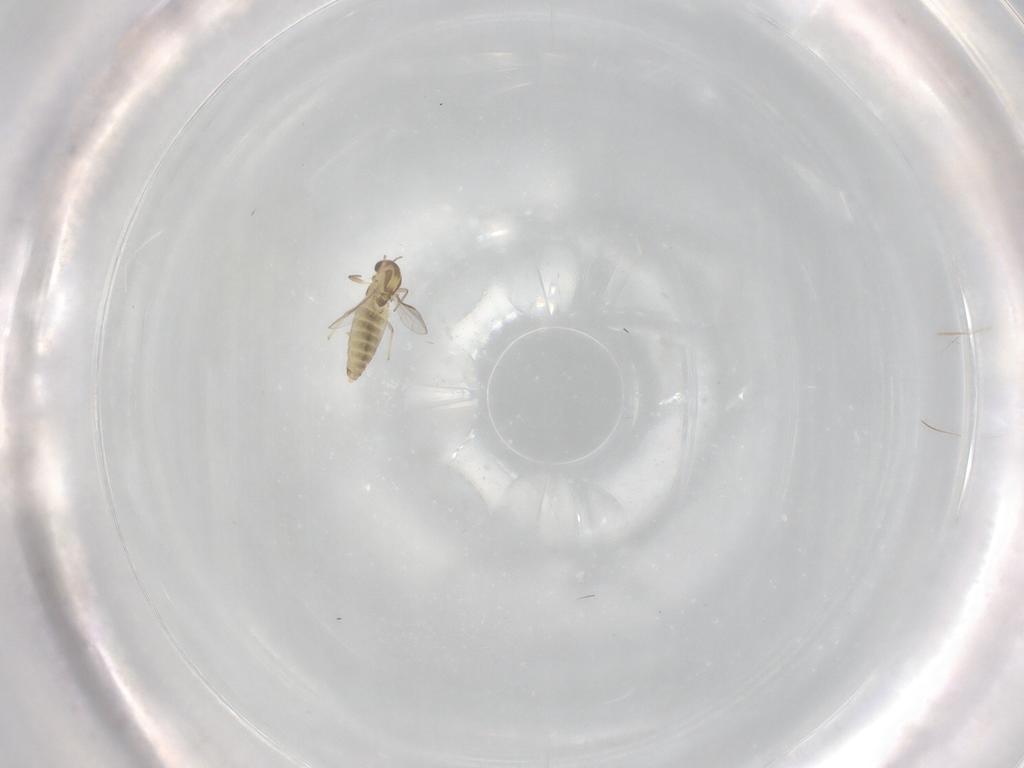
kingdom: Animalia
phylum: Arthropoda
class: Insecta
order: Diptera
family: Chironomidae
